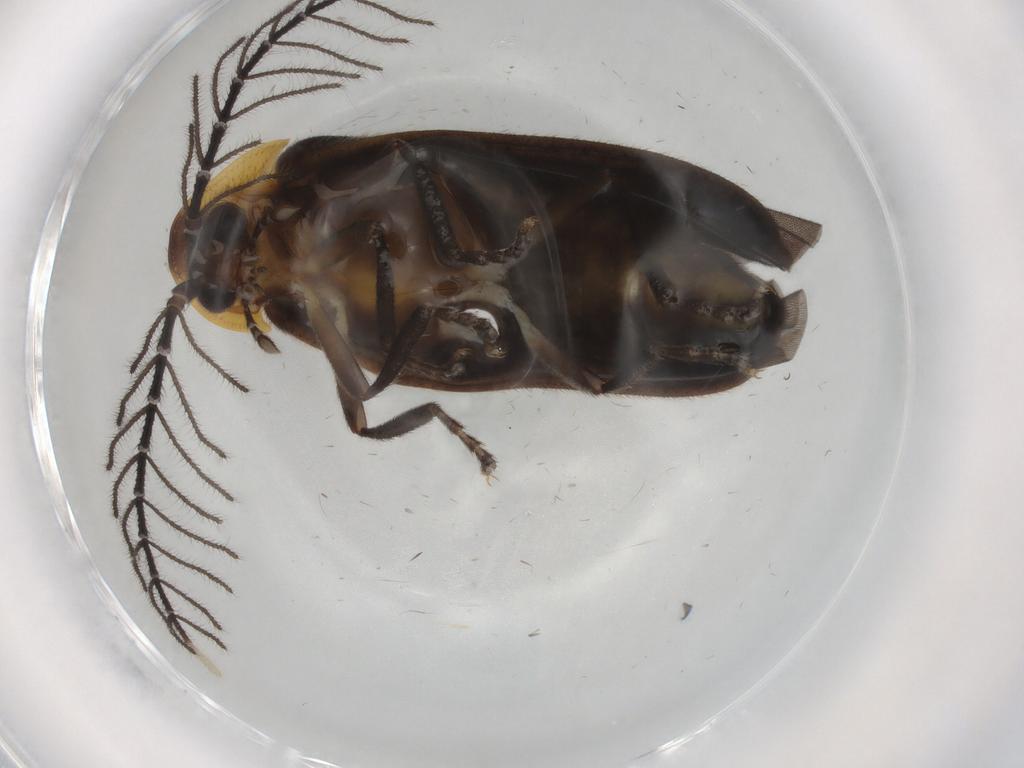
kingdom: Animalia
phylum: Arthropoda
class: Insecta
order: Coleoptera
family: Lampyridae
